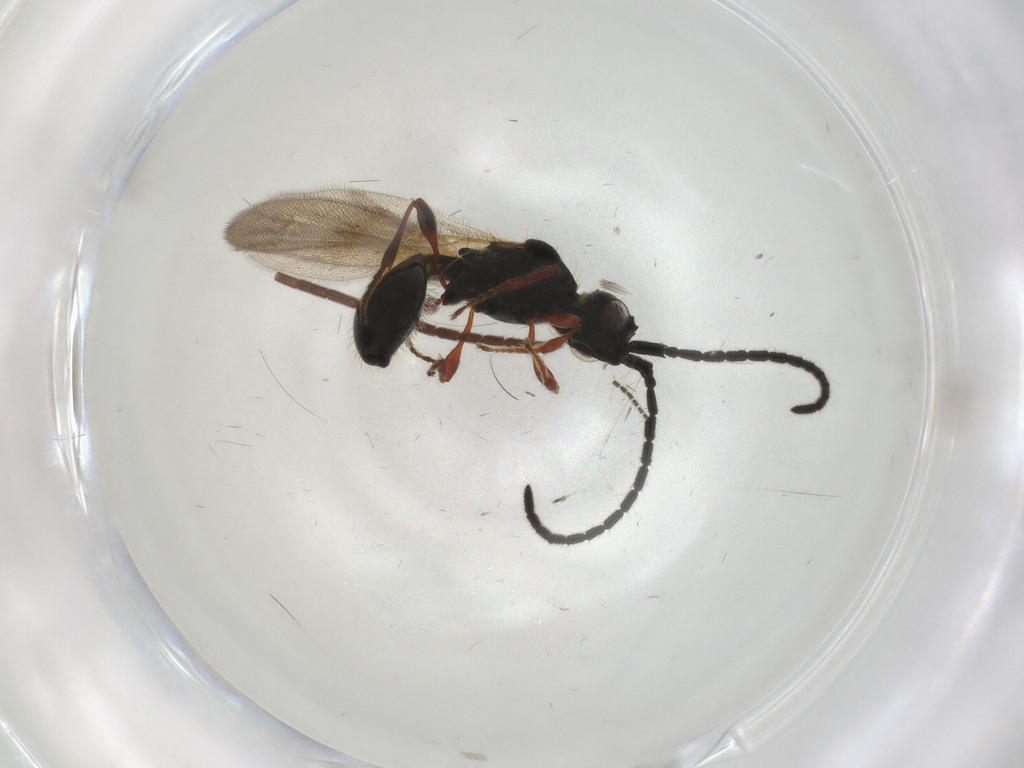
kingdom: Animalia
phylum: Arthropoda
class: Insecta
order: Hymenoptera
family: Formicidae
